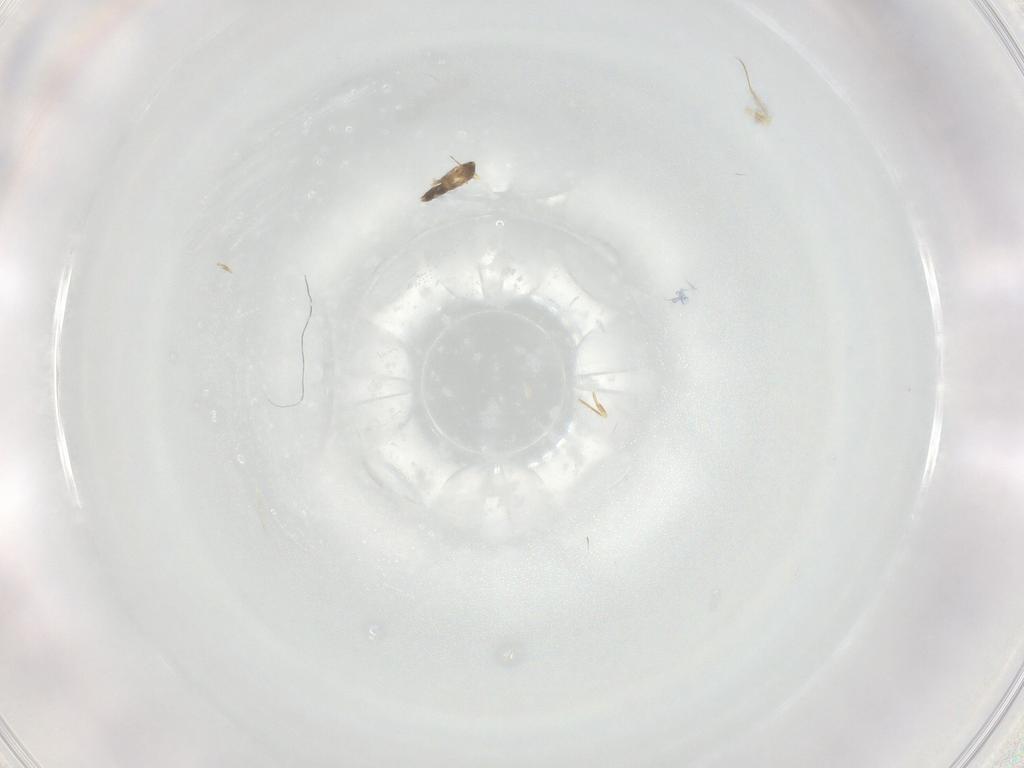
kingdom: Animalia
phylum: Arthropoda
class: Insecta
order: Hymenoptera
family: Mymaridae
